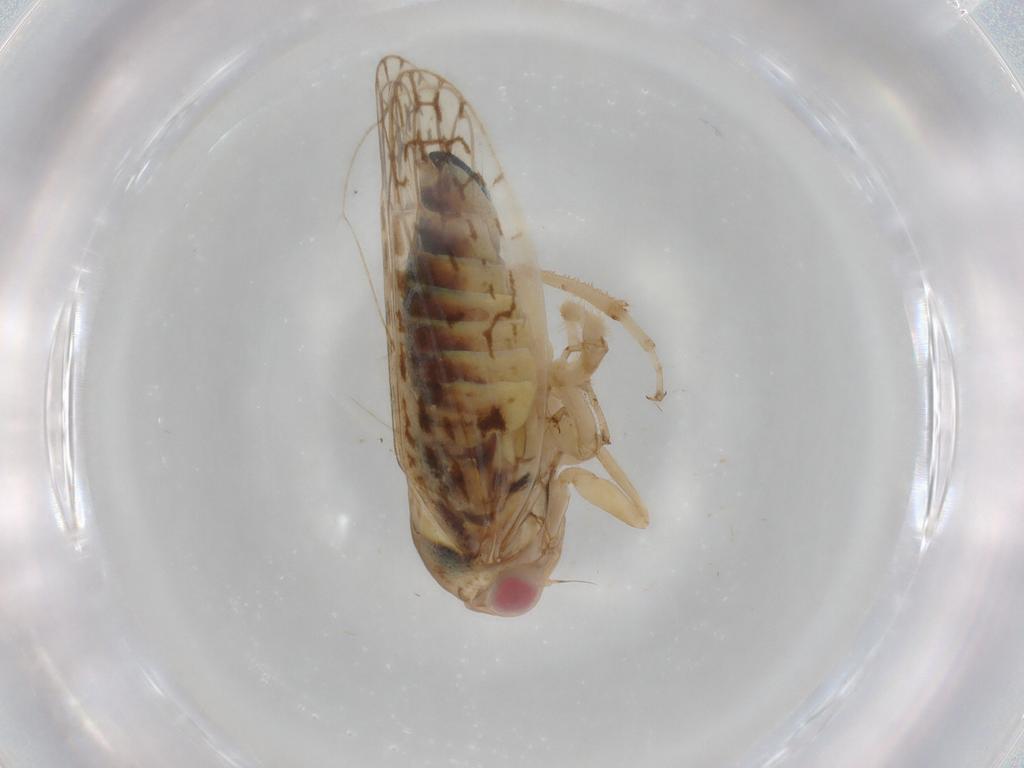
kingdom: Animalia
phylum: Arthropoda
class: Insecta
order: Hemiptera
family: Cicadellidae
